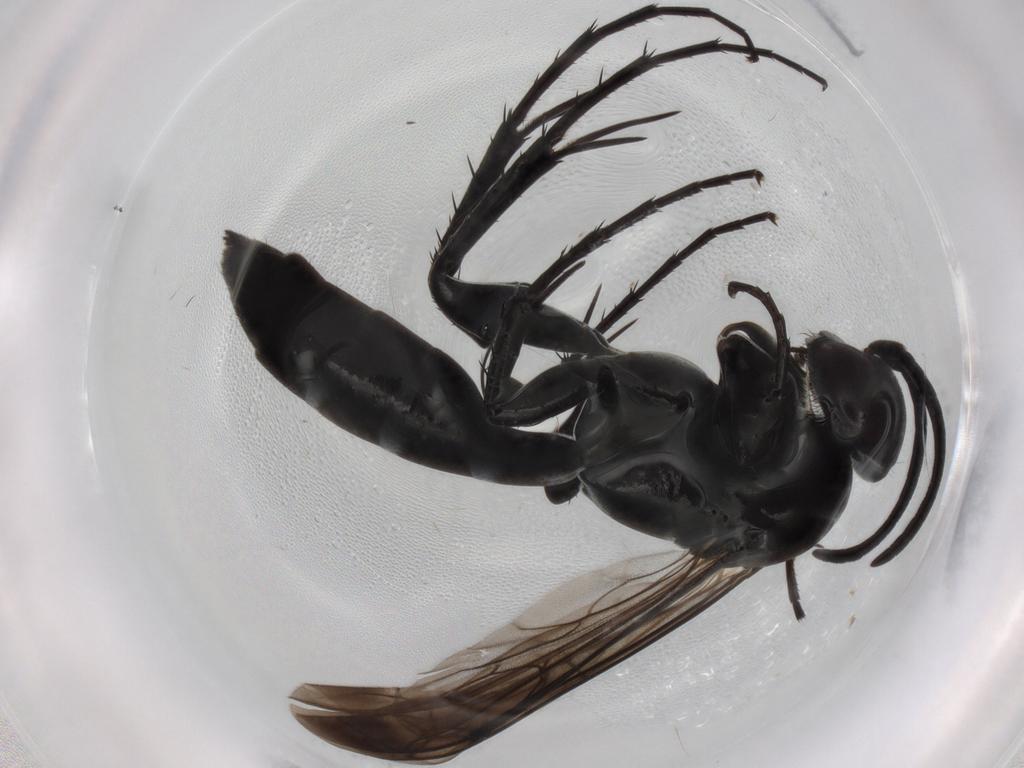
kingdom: Animalia
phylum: Arthropoda
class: Insecta
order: Hymenoptera
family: Pompilidae
